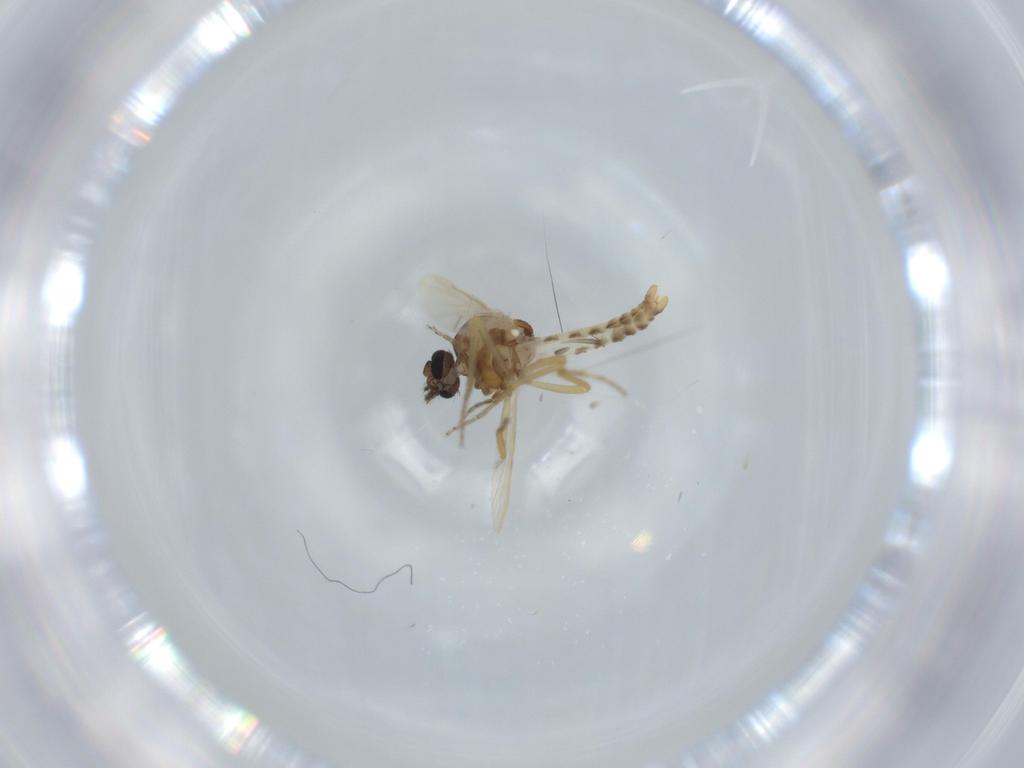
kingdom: Animalia
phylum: Arthropoda
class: Insecta
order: Diptera
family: Ceratopogonidae
